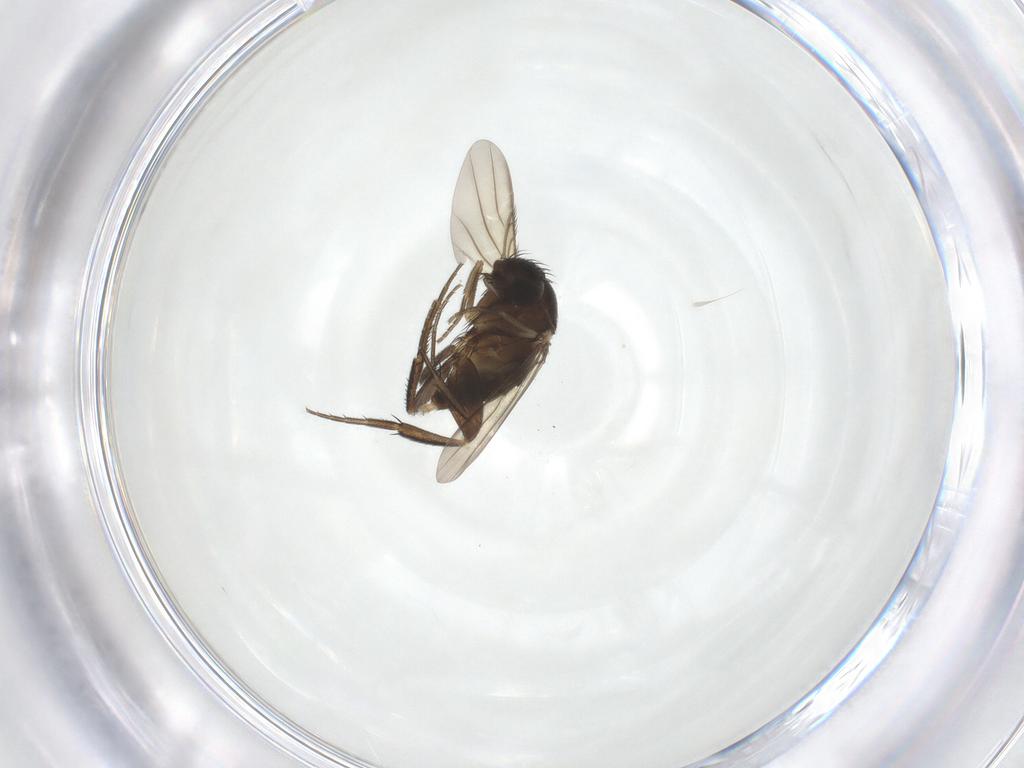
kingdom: Animalia
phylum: Arthropoda
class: Insecta
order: Diptera
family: Phoridae
